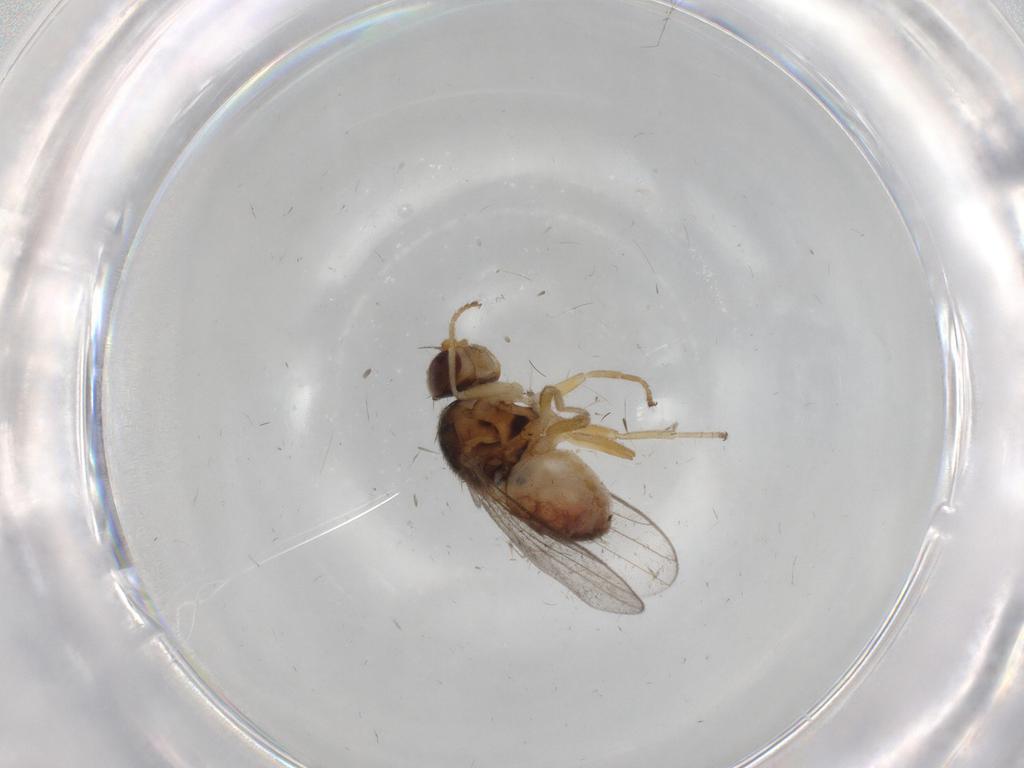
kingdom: Animalia
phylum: Arthropoda
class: Insecta
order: Diptera
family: Chloropidae
